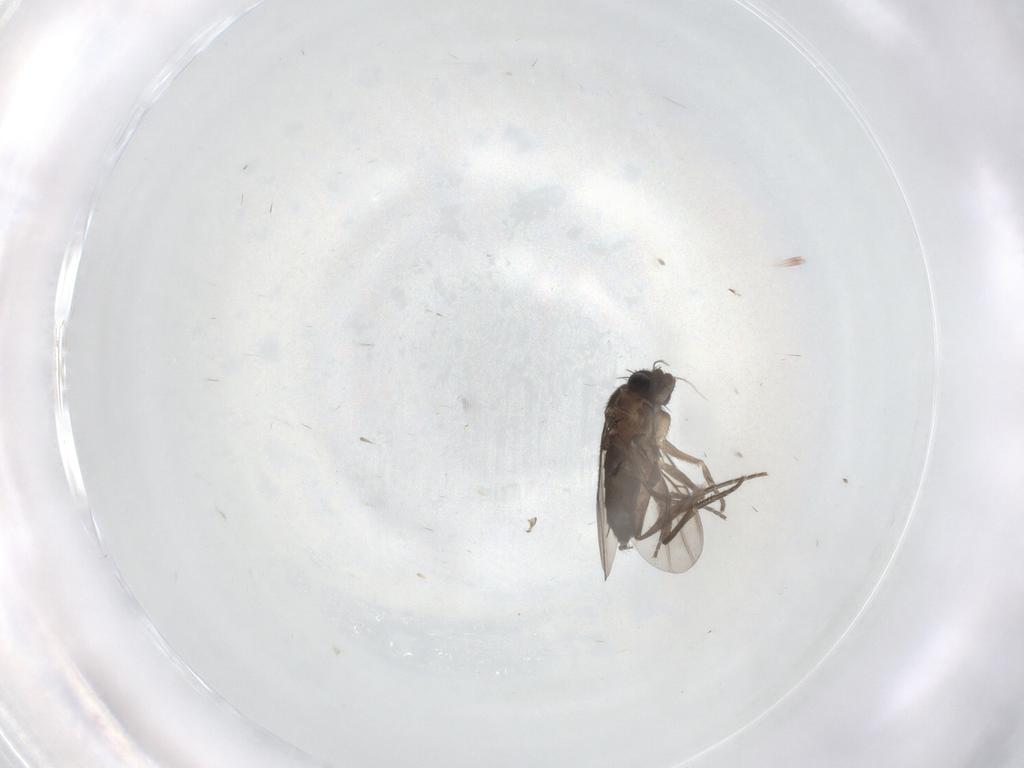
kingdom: Animalia
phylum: Arthropoda
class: Insecta
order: Diptera
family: Phoridae
